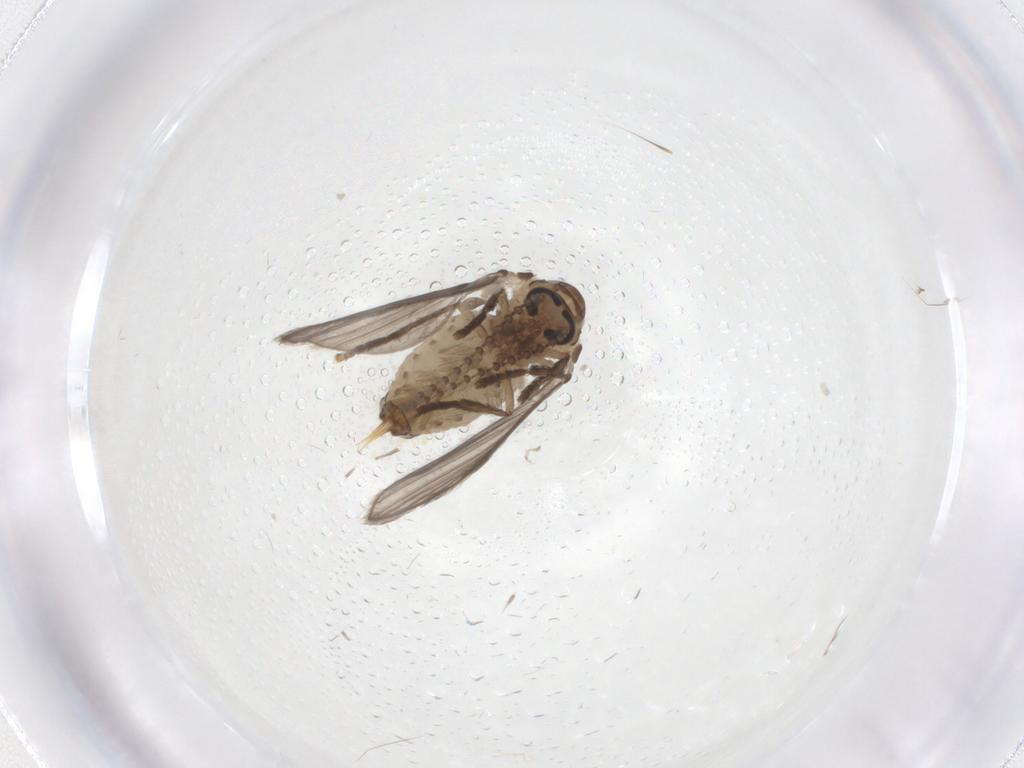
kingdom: Animalia
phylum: Arthropoda
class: Insecta
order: Diptera
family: Psychodidae
